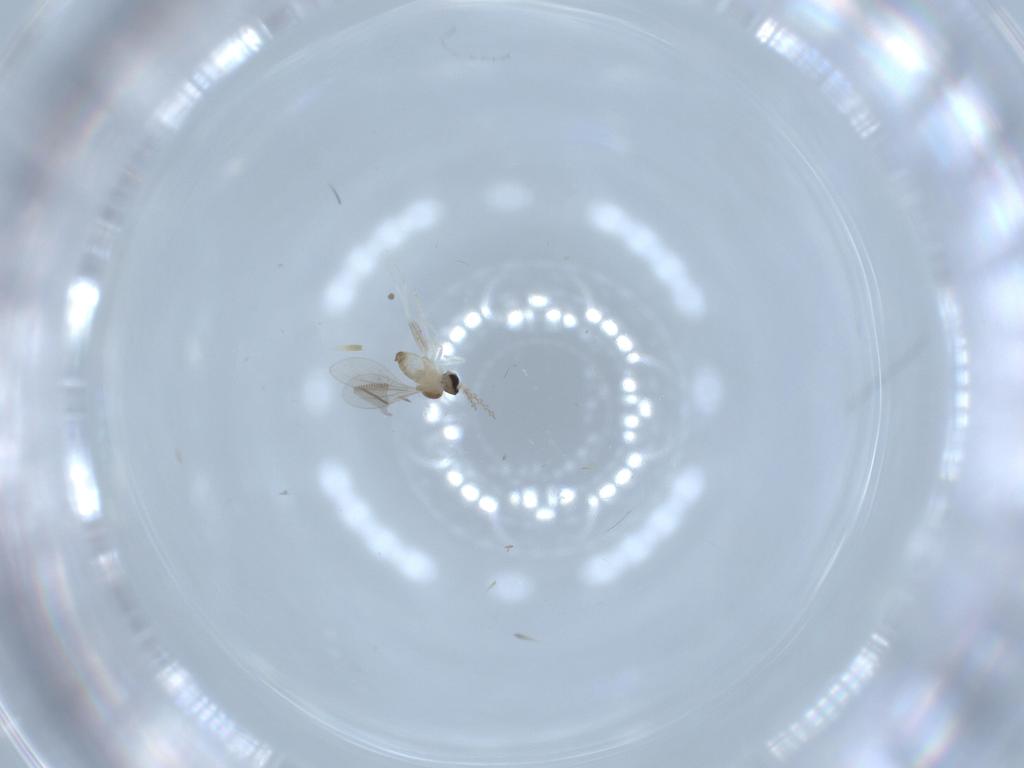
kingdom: Animalia
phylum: Arthropoda
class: Insecta
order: Diptera
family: Cecidomyiidae
